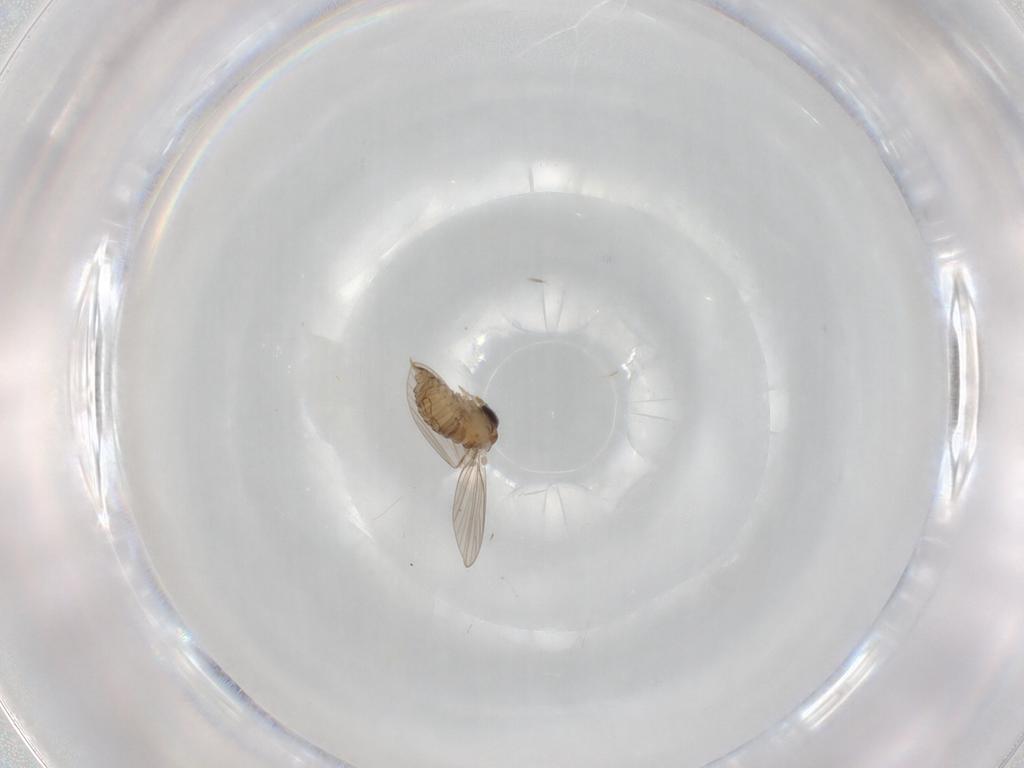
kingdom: Animalia
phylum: Arthropoda
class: Insecta
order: Diptera
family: Psychodidae
